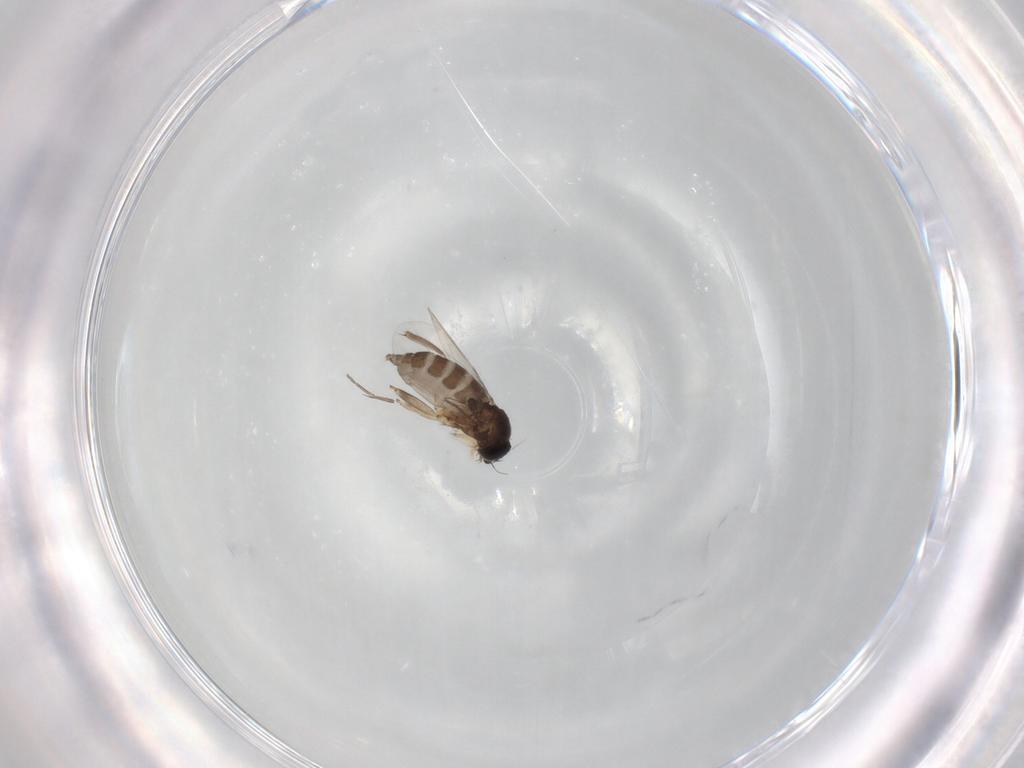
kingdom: Animalia
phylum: Arthropoda
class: Insecta
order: Diptera
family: Phoridae
